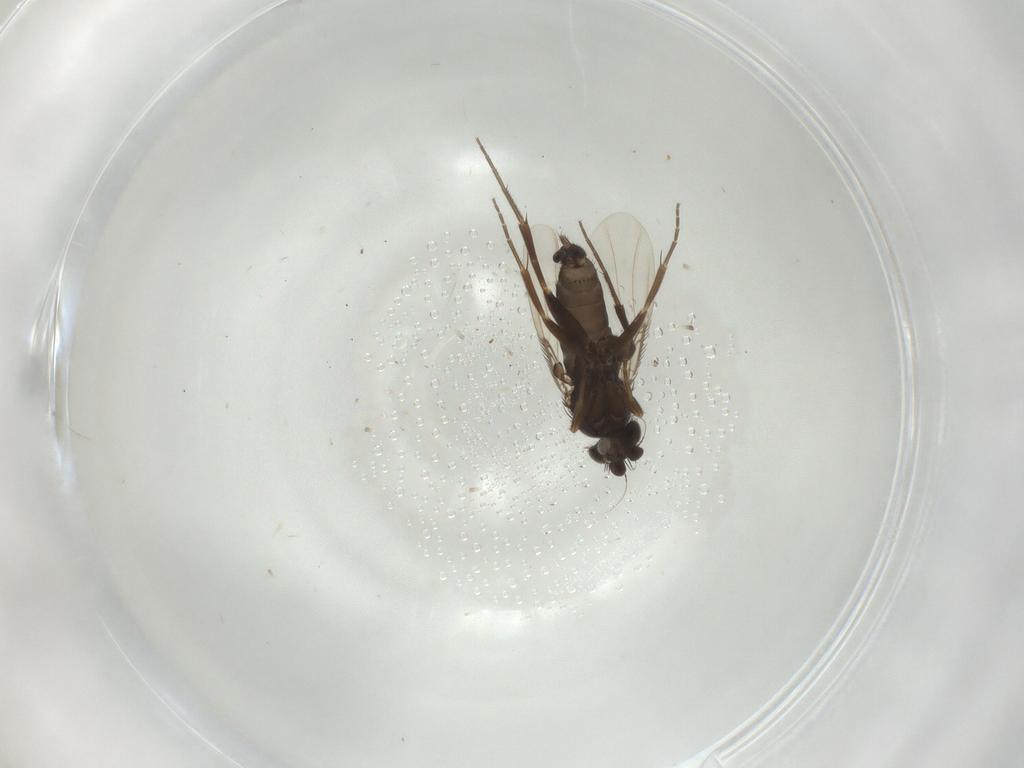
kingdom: Animalia
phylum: Arthropoda
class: Insecta
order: Diptera
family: Phoridae
